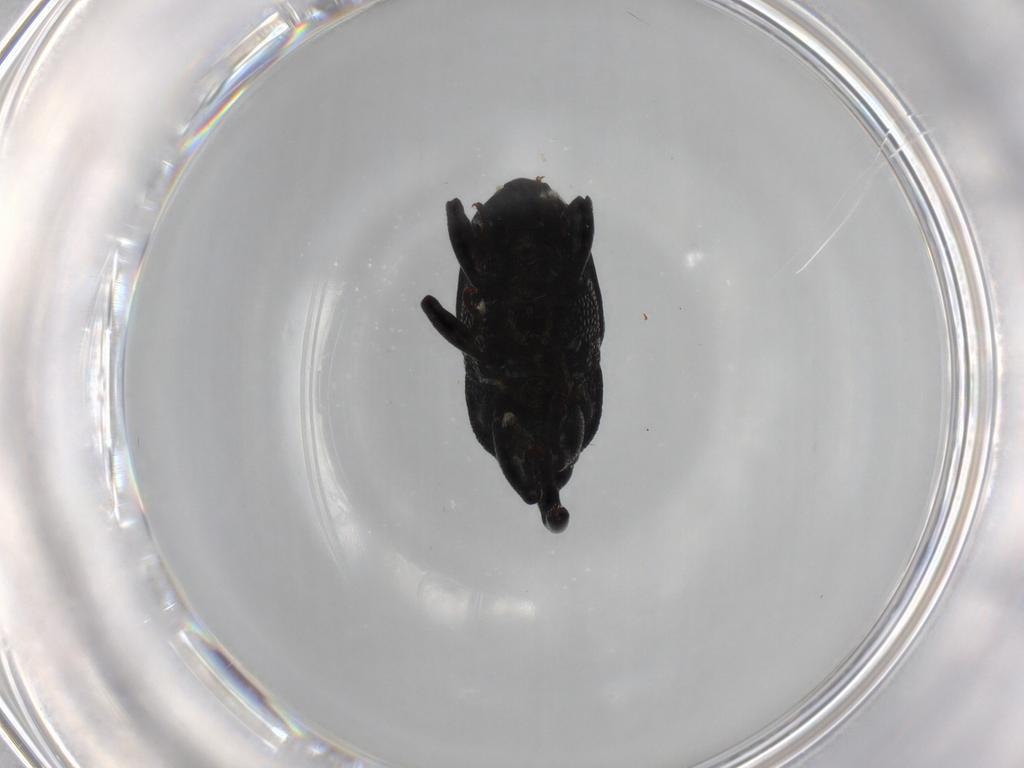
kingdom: Animalia
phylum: Arthropoda
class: Insecta
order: Coleoptera
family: Curculionidae
